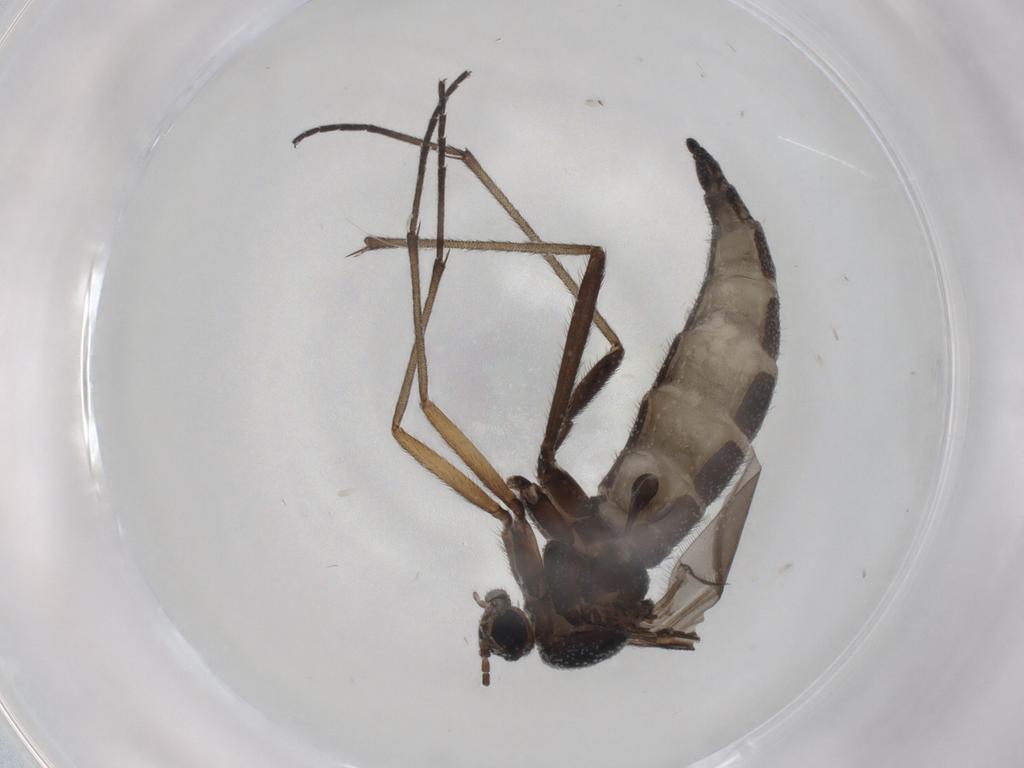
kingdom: Animalia
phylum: Arthropoda
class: Insecta
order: Diptera
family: Sciaridae
